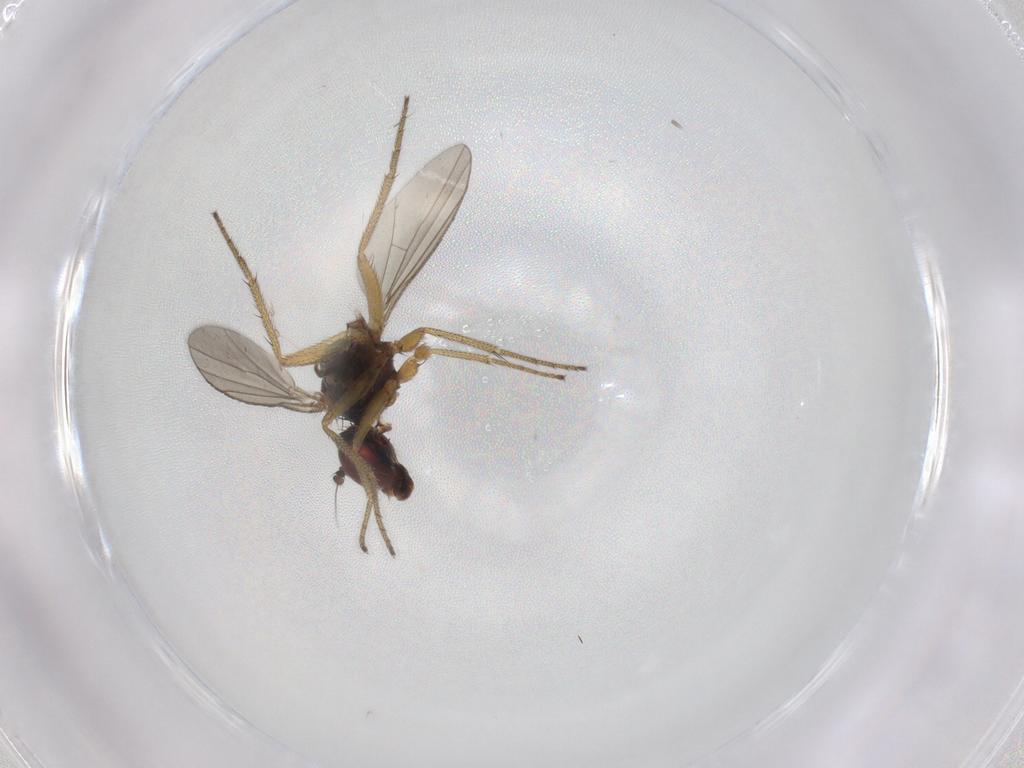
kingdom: Animalia
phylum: Arthropoda
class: Insecta
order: Diptera
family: Chironomidae
